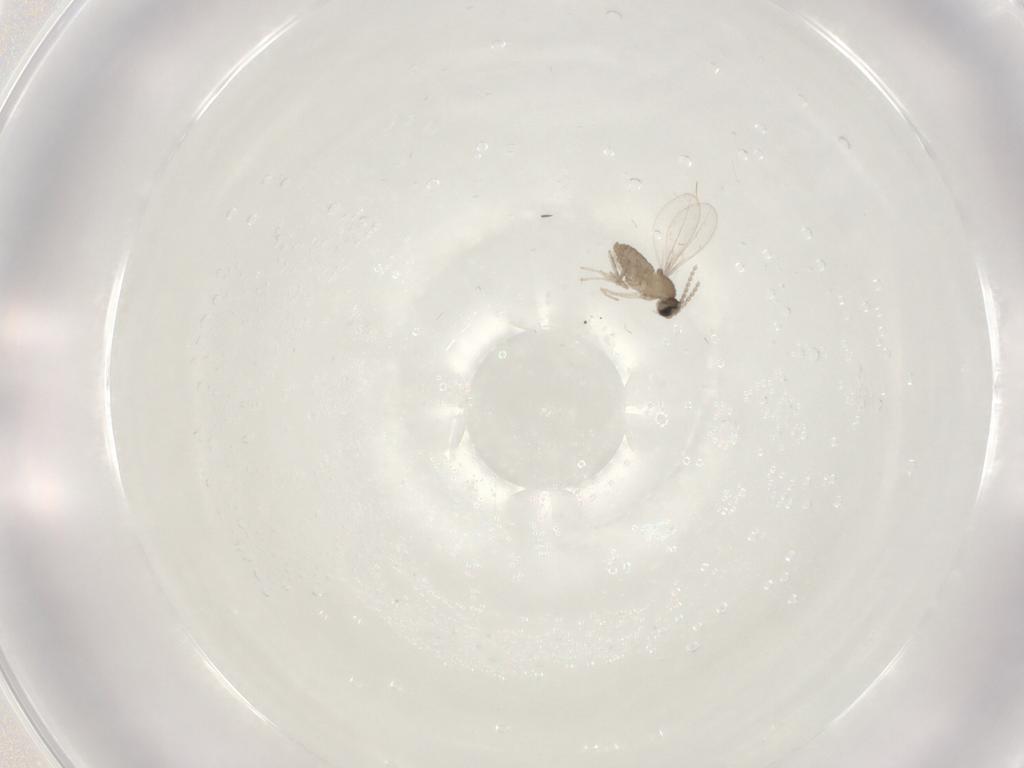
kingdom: Animalia
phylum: Arthropoda
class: Insecta
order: Diptera
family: Cecidomyiidae
